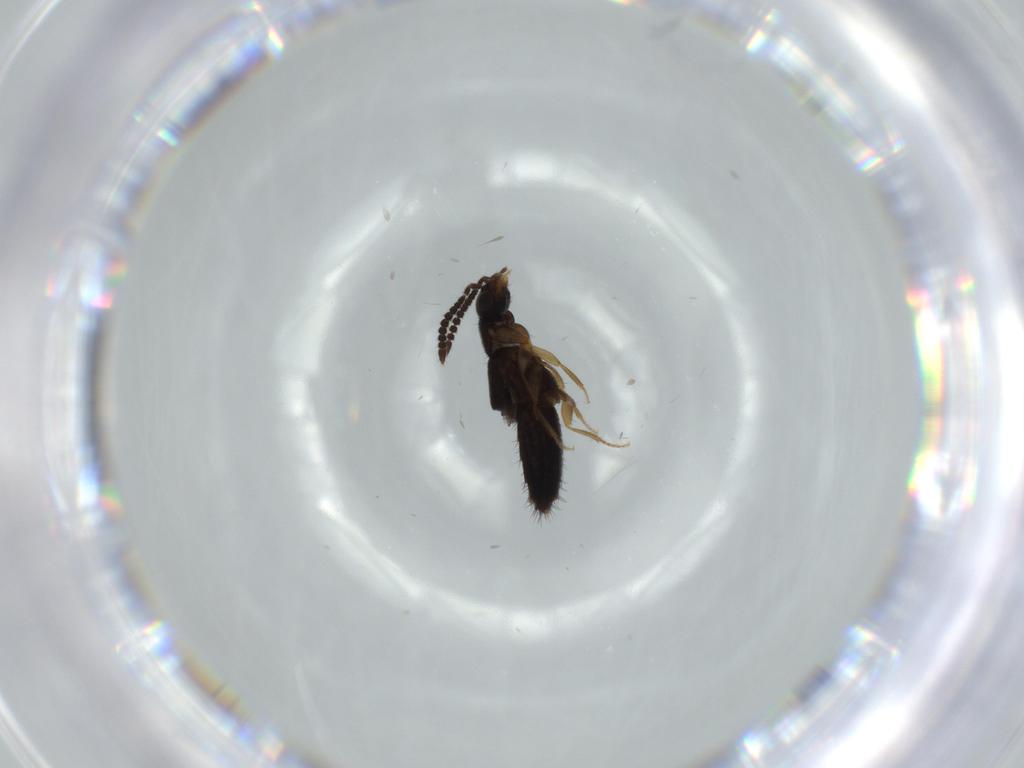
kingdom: Animalia
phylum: Arthropoda
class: Insecta
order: Coleoptera
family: Staphylinidae
